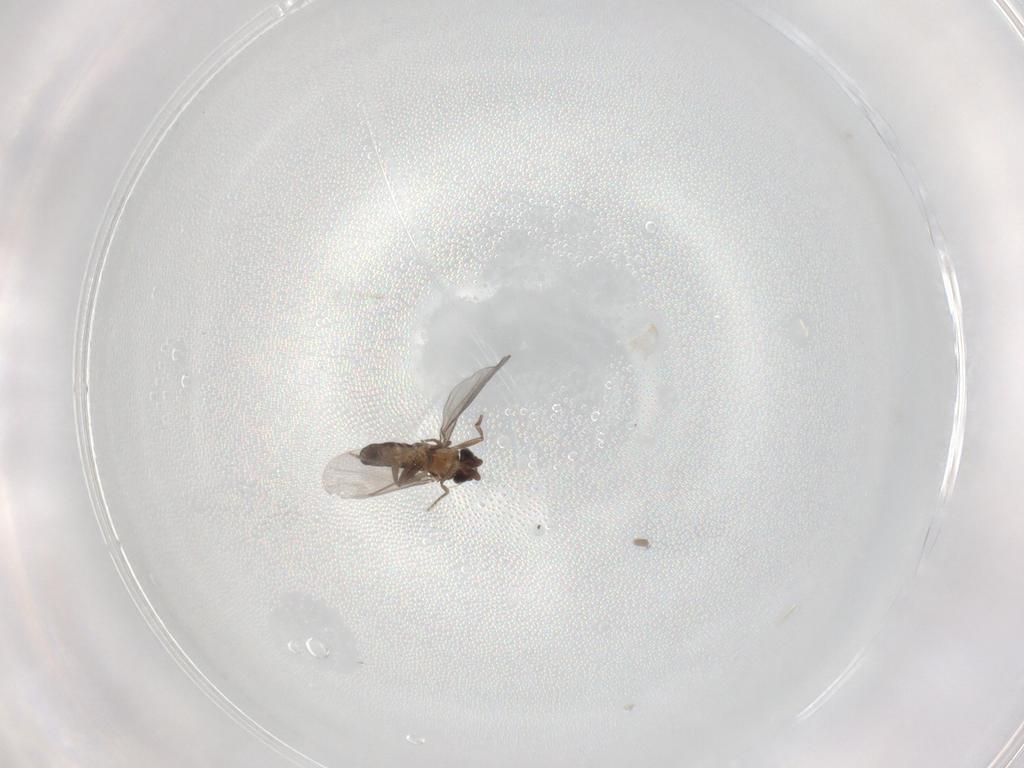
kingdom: Animalia
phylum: Arthropoda
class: Insecta
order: Diptera
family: Chironomidae
